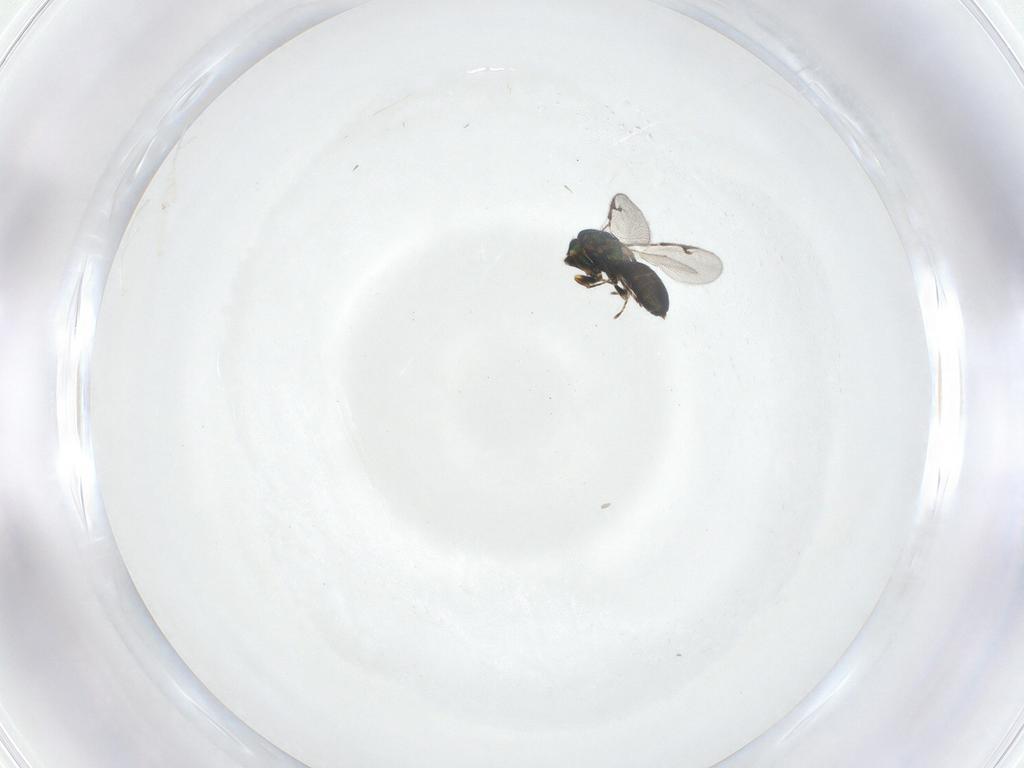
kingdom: Animalia
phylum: Arthropoda
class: Insecta
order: Hymenoptera
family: Pteromalidae
